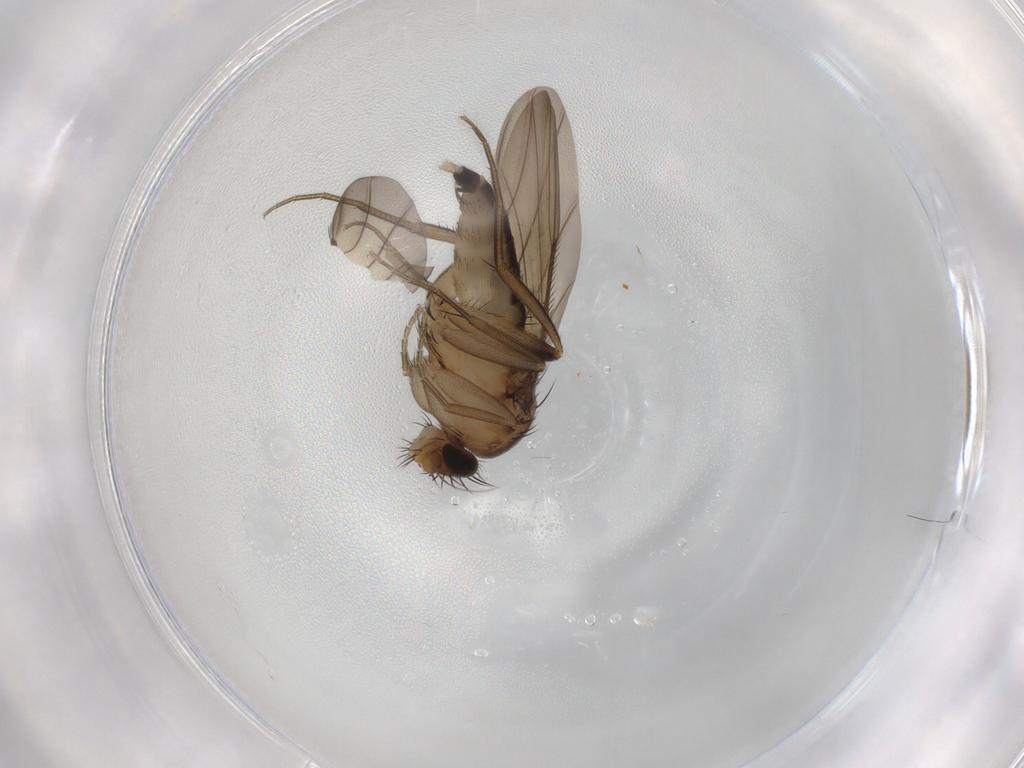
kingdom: Animalia
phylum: Arthropoda
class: Insecta
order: Diptera
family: Phoridae
